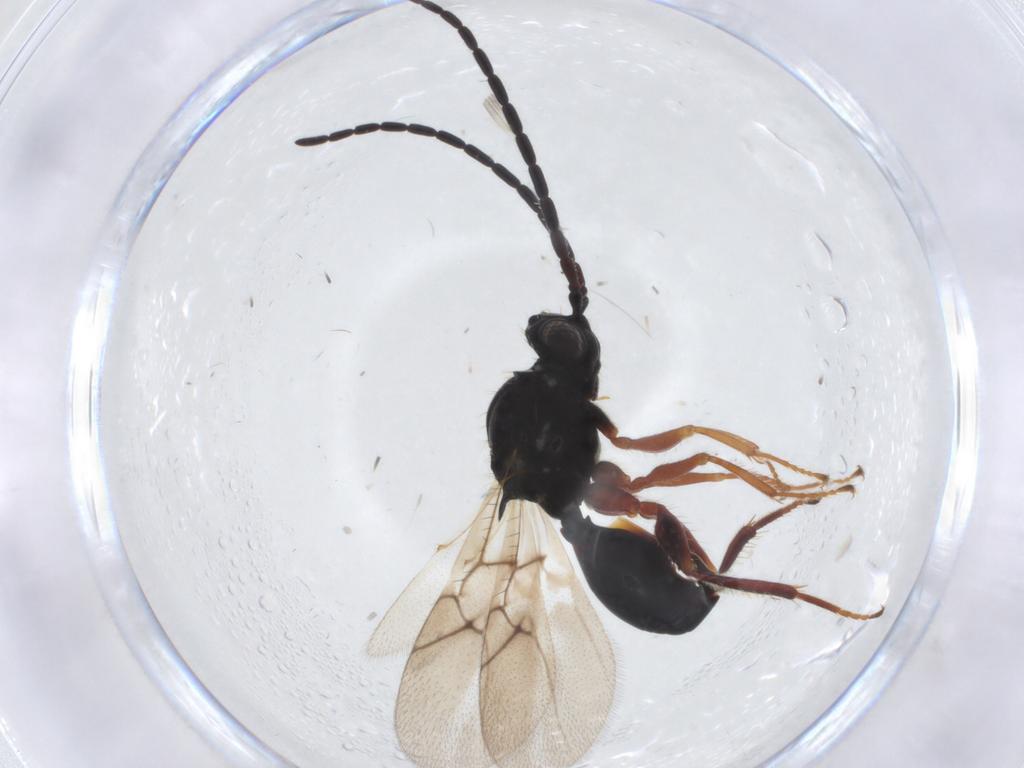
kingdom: Animalia
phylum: Arthropoda
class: Insecta
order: Hymenoptera
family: Figitidae
